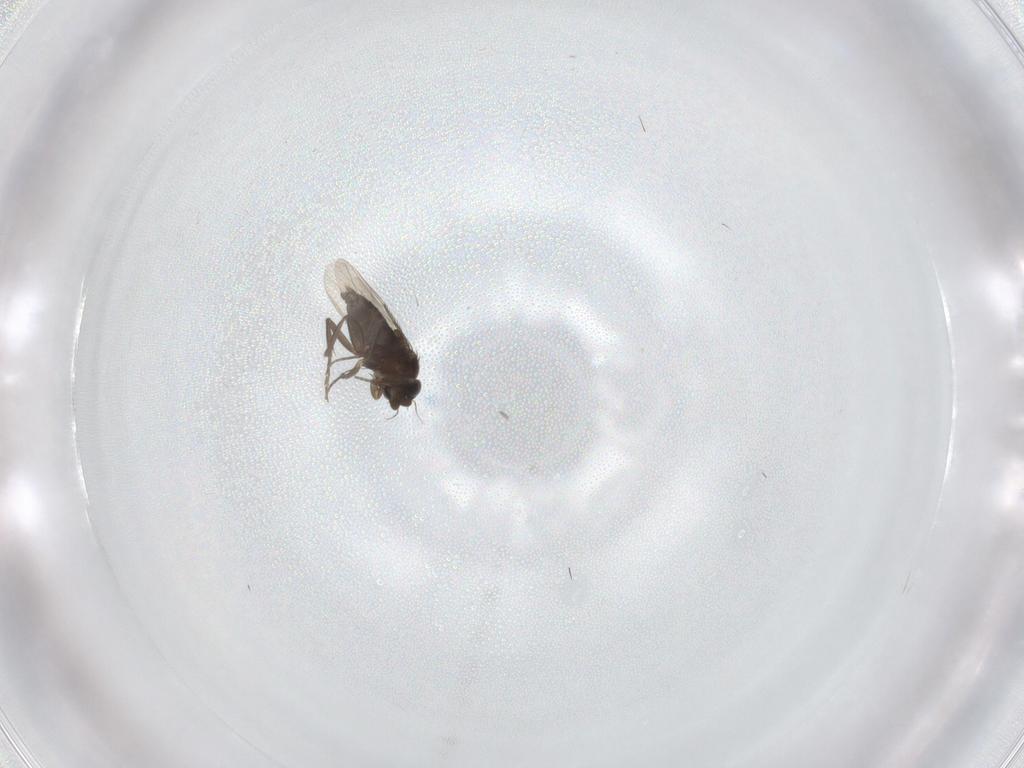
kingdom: Animalia
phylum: Arthropoda
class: Insecta
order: Diptera
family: Phoridae
